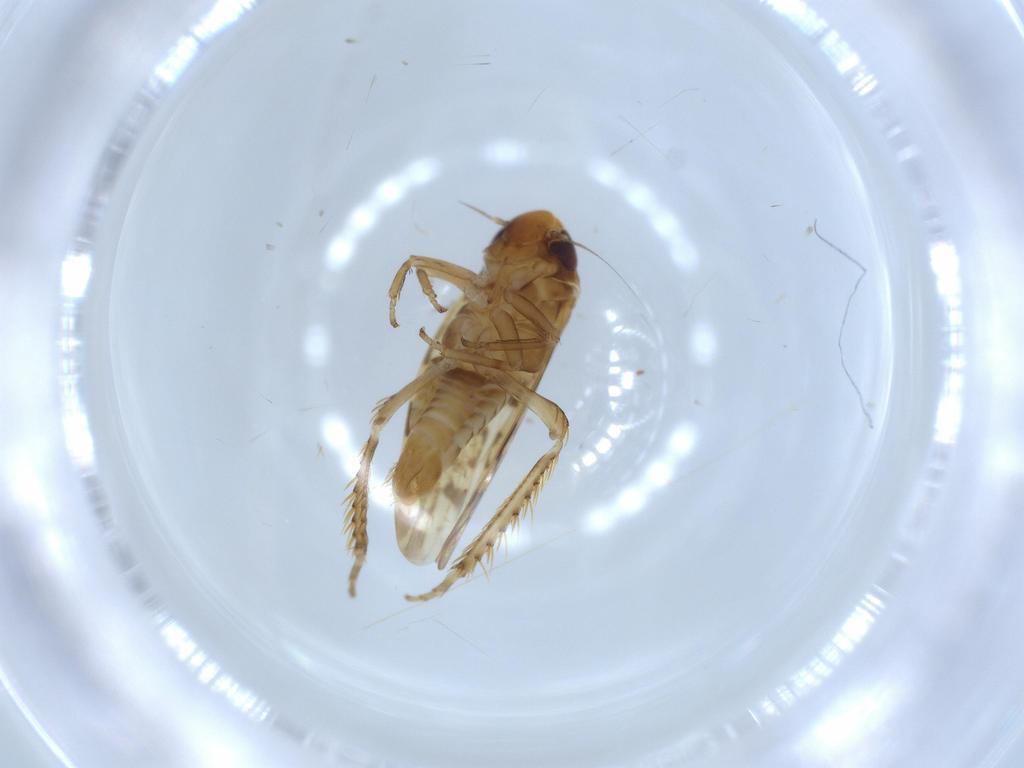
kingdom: Animalia
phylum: Arthropoda
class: Insecta
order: Hemiptera
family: Cicadellidae
